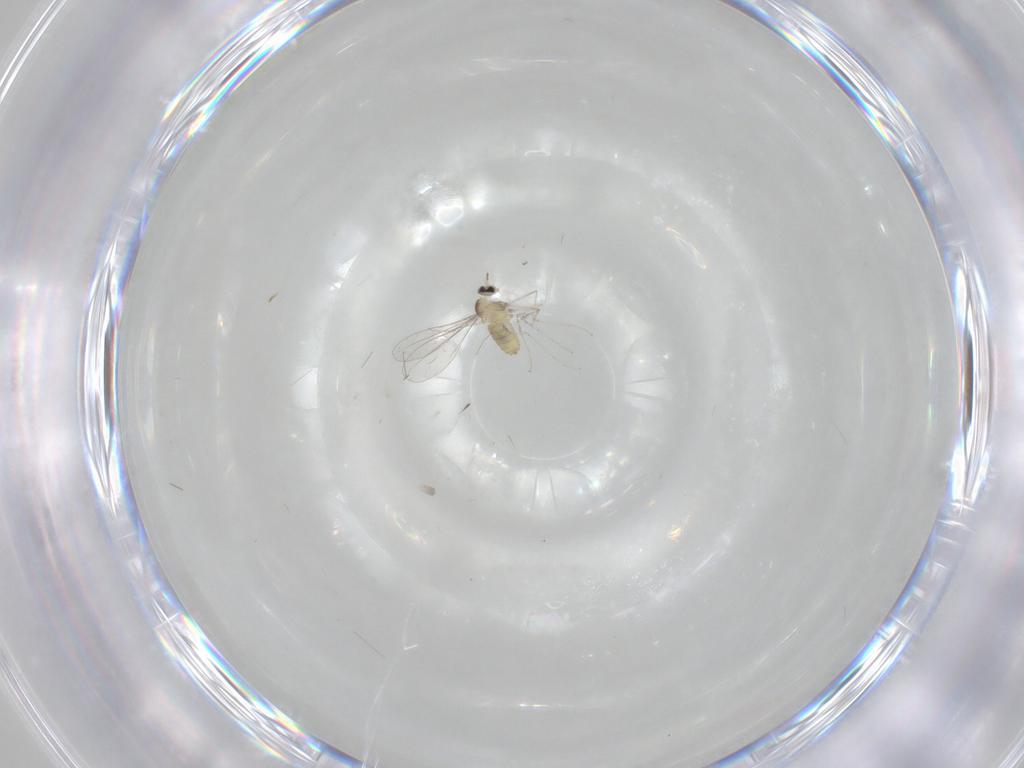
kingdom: Animalia
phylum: Arthropoda
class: Insecta
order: Diptera
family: Cecidomyiidae
